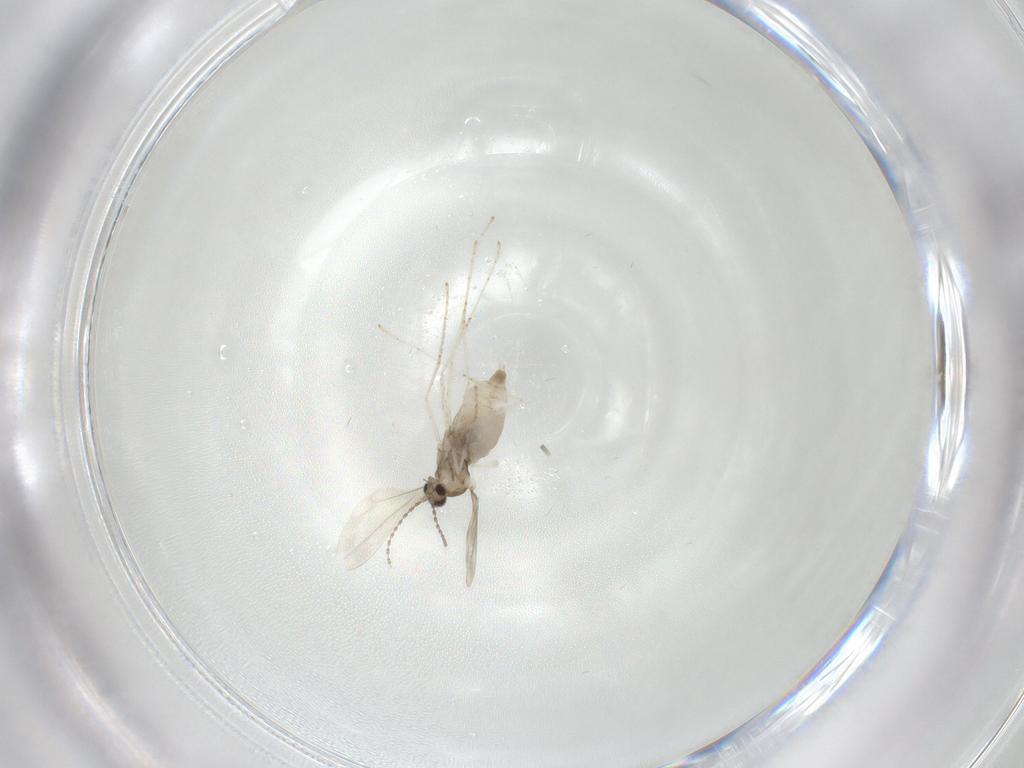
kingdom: Animalia
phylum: Arthropoda
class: Insecta
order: Diptera
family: Cecidomyiidae
